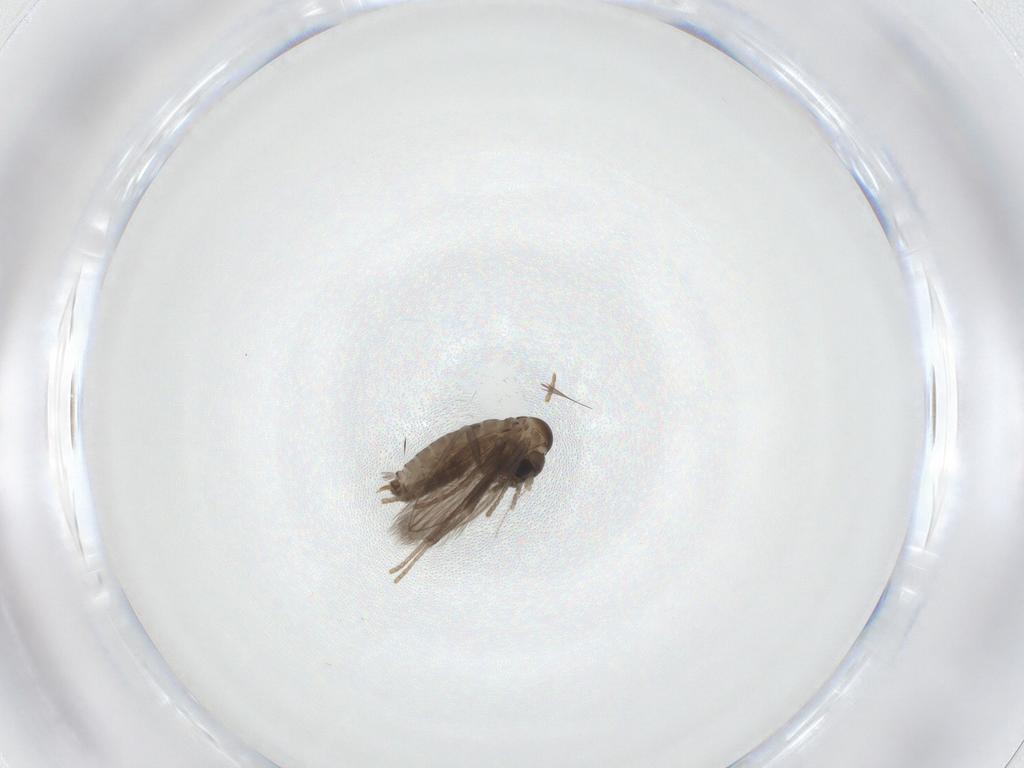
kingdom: Animalia
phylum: Arthropoda
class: Insecta
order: Diptera
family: Psychodidae
